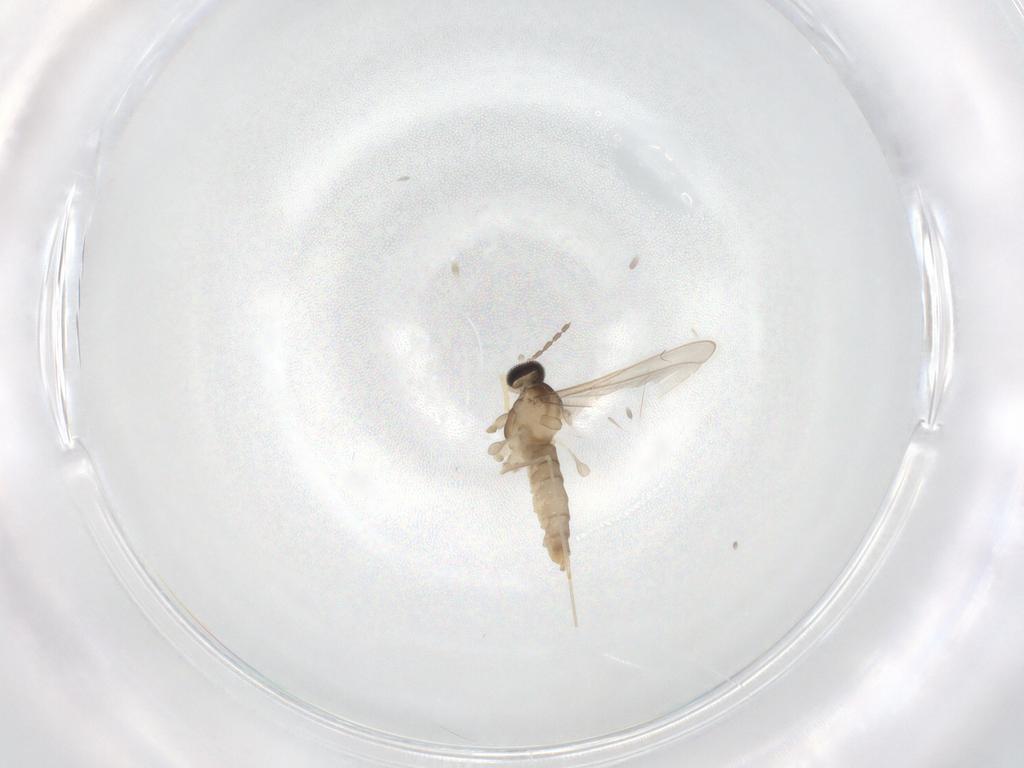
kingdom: Animalia
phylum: Arthropoda
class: Insecta
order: Diptera
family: Cecidomyiidae
